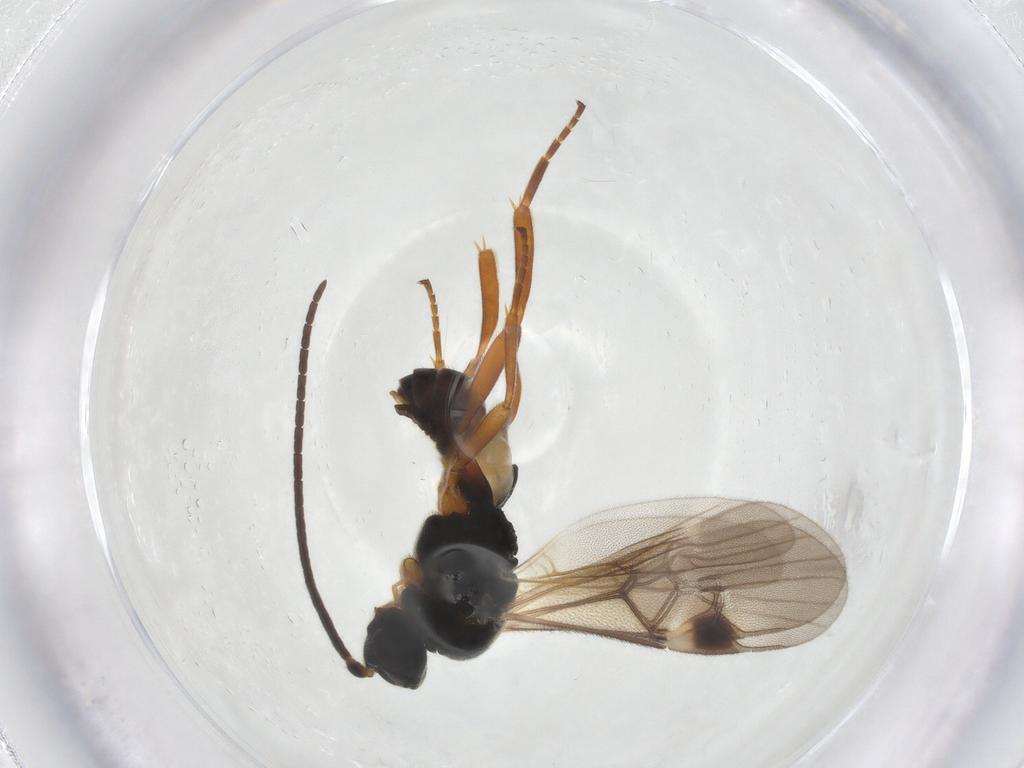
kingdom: Animalia
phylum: Arthropoda
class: Insecta
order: Hymenoptera
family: Braconidae
